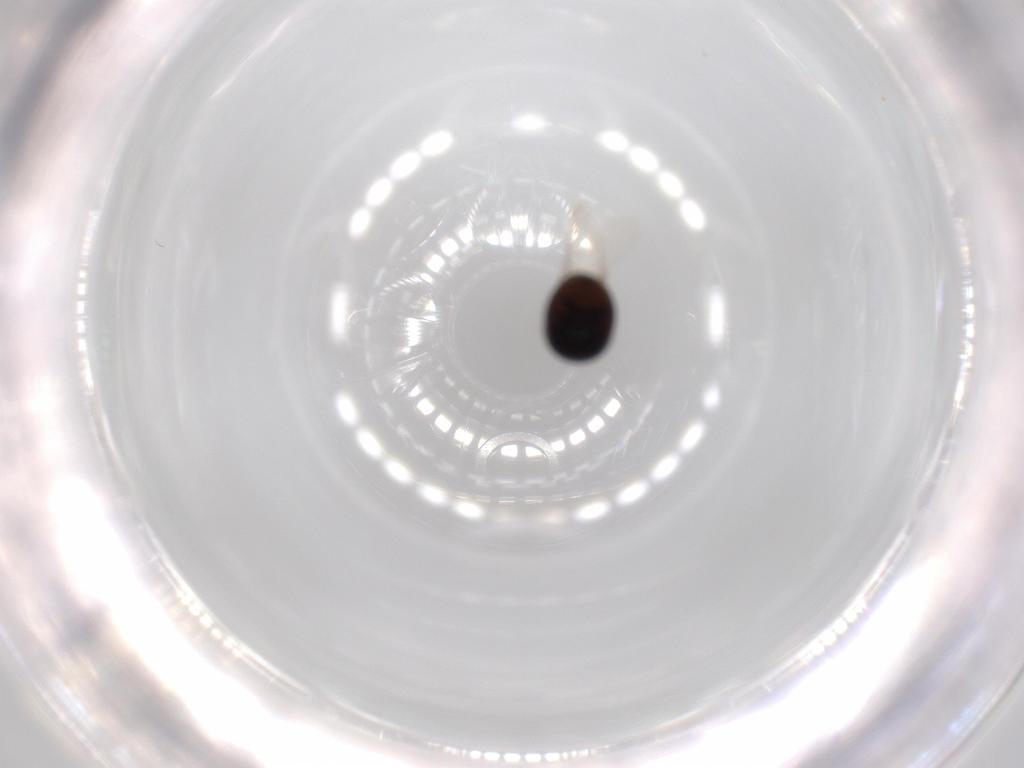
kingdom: Animalia
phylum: Arthropoda
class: Insecta
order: Coleoptera
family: Cybocephalidae
